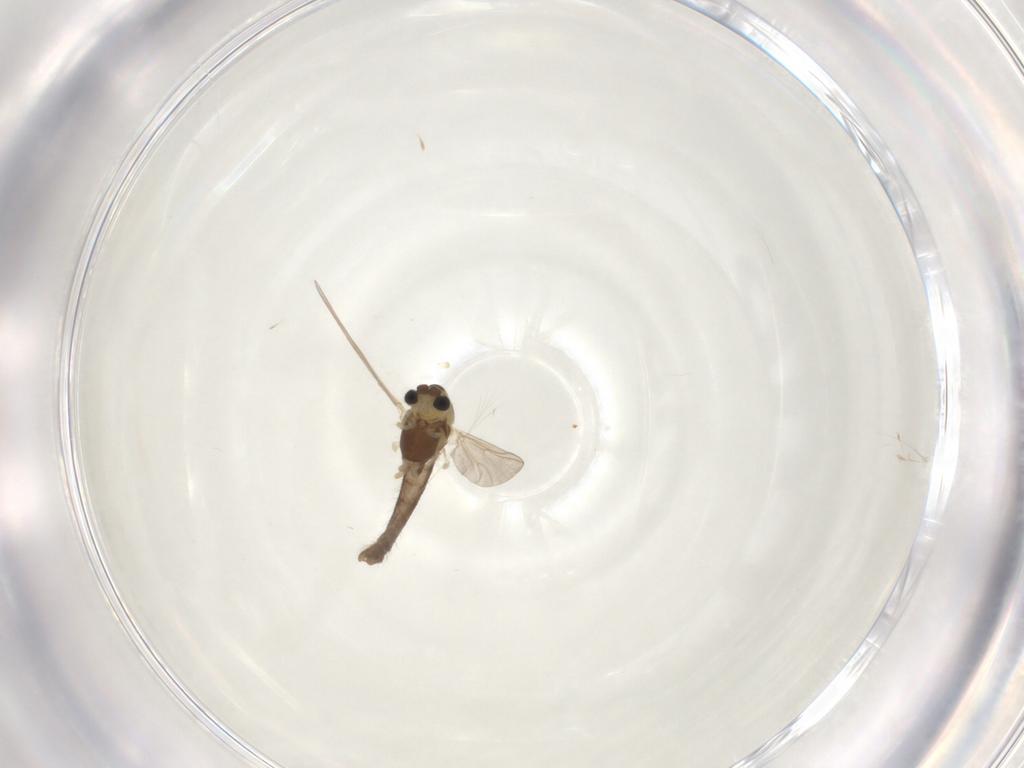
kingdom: Animalia
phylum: Arthropoda
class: Insecta
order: Diptera
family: Chironomidae
